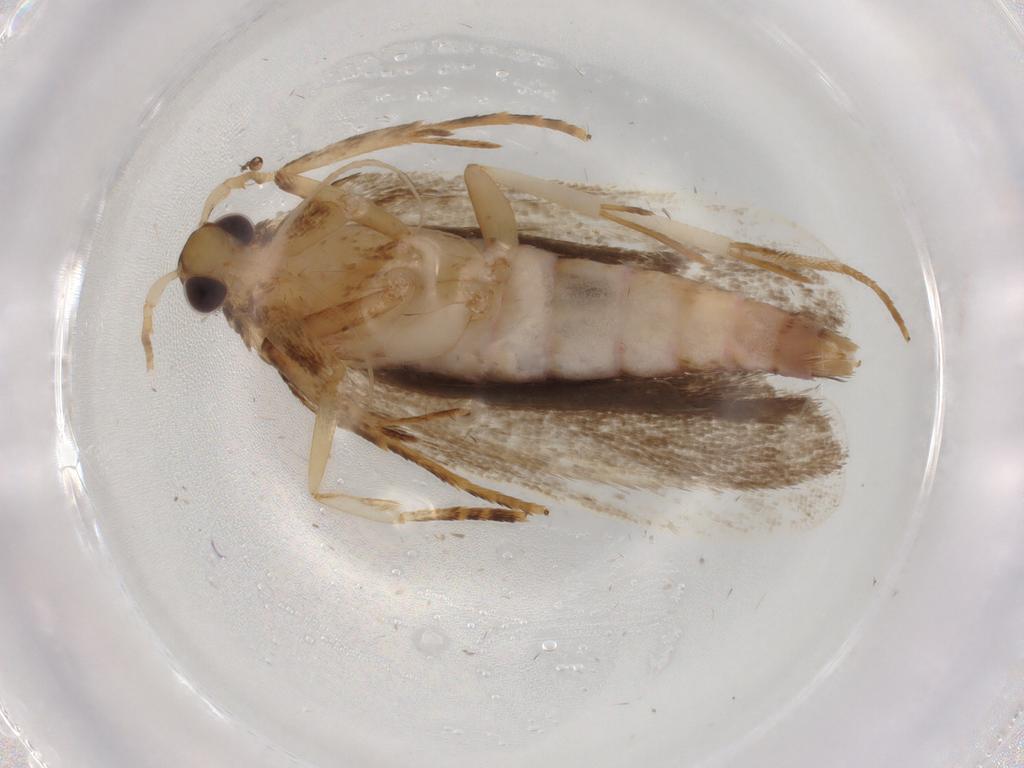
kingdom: Animalia
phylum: Arthropoda
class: Insecta
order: Lepidoptera
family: Autostichidae
